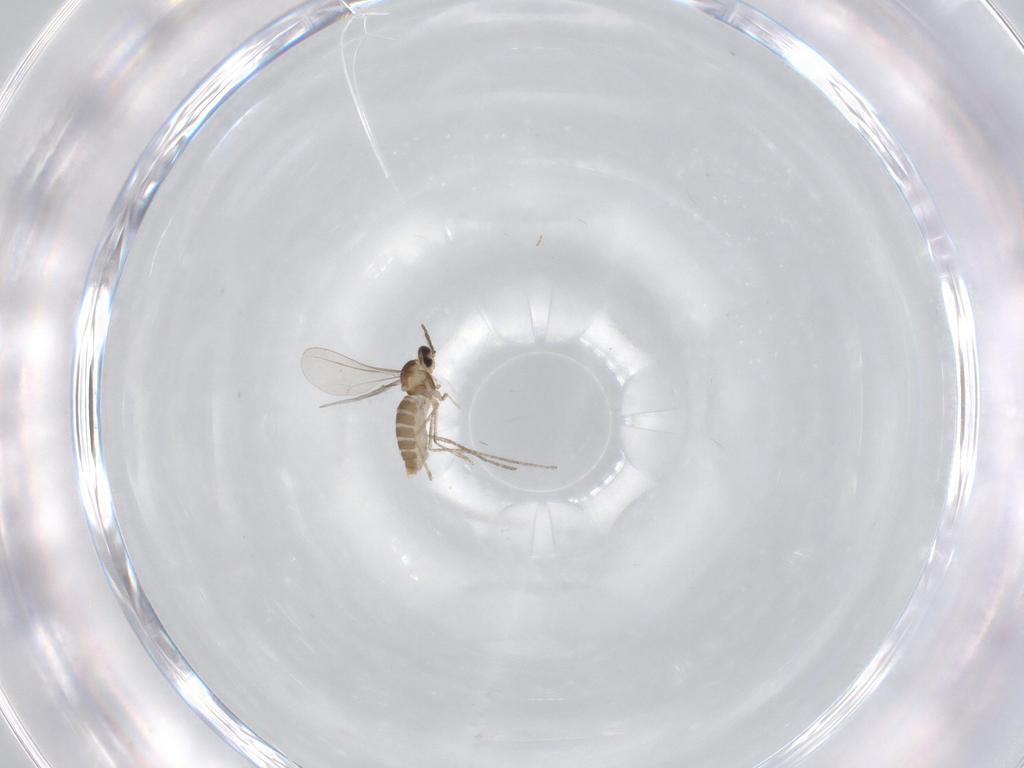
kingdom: Animalia
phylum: Arthropoda
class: Insecta
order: Diptera
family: Cecidomyiidae
